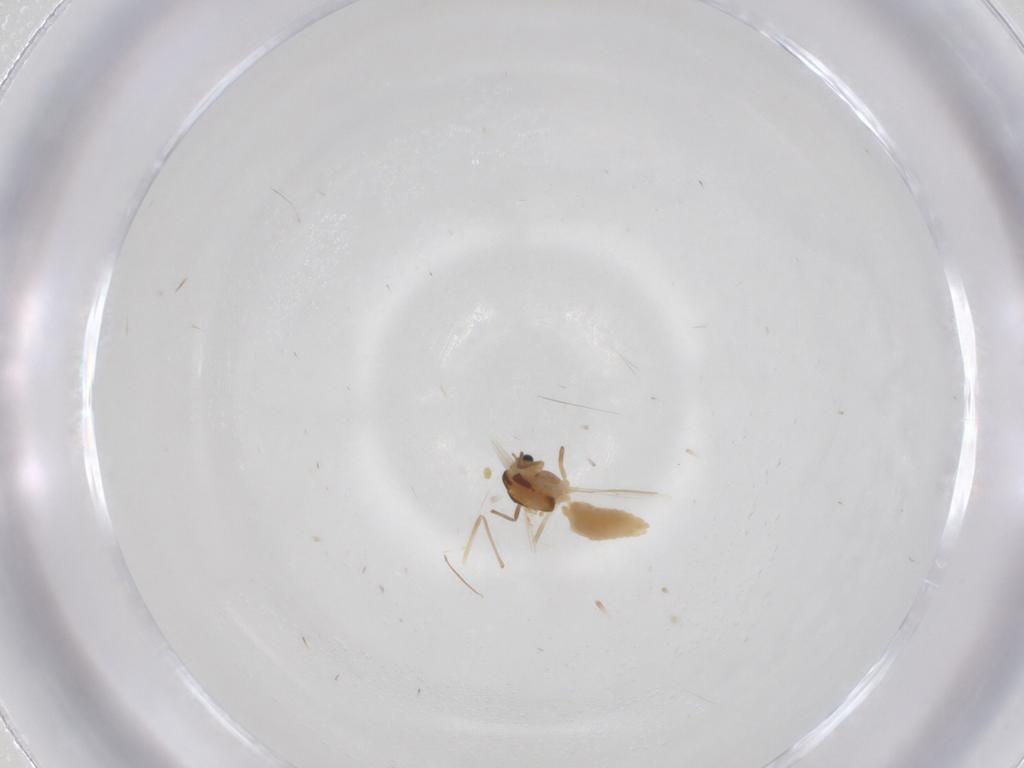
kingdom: Animalia
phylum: Arthropoda
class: Insecta
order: Diptera
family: Chironomidae
